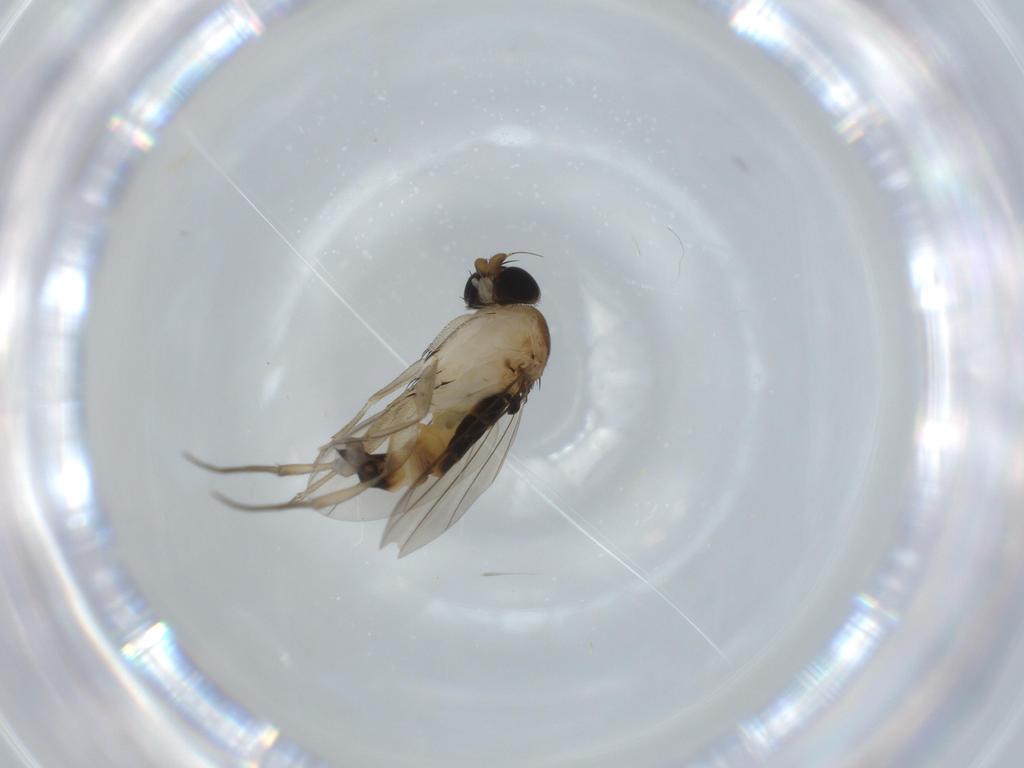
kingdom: Animalia
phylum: Arthropoda
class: Insecta
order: Diptera
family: Phoridae
